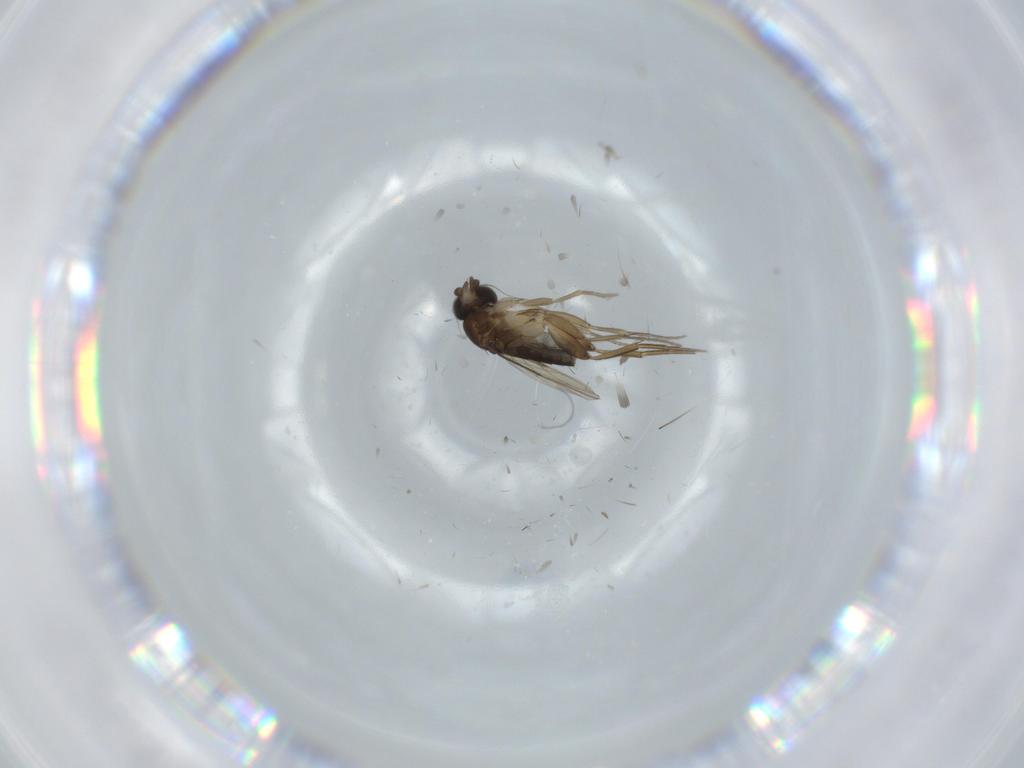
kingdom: Animalia
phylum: Arthropoda
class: Insecta
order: Diptera
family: Phoridae
